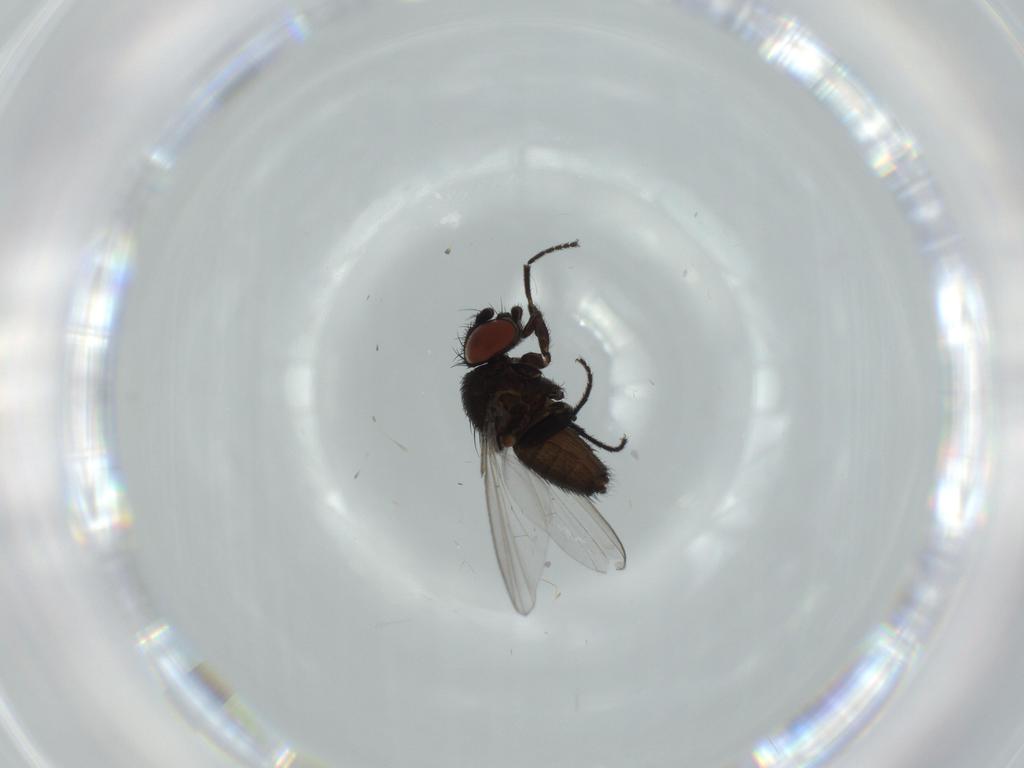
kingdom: Animalia
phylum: Arthropoda
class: Insecta
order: Diptera
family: Milichiidae
